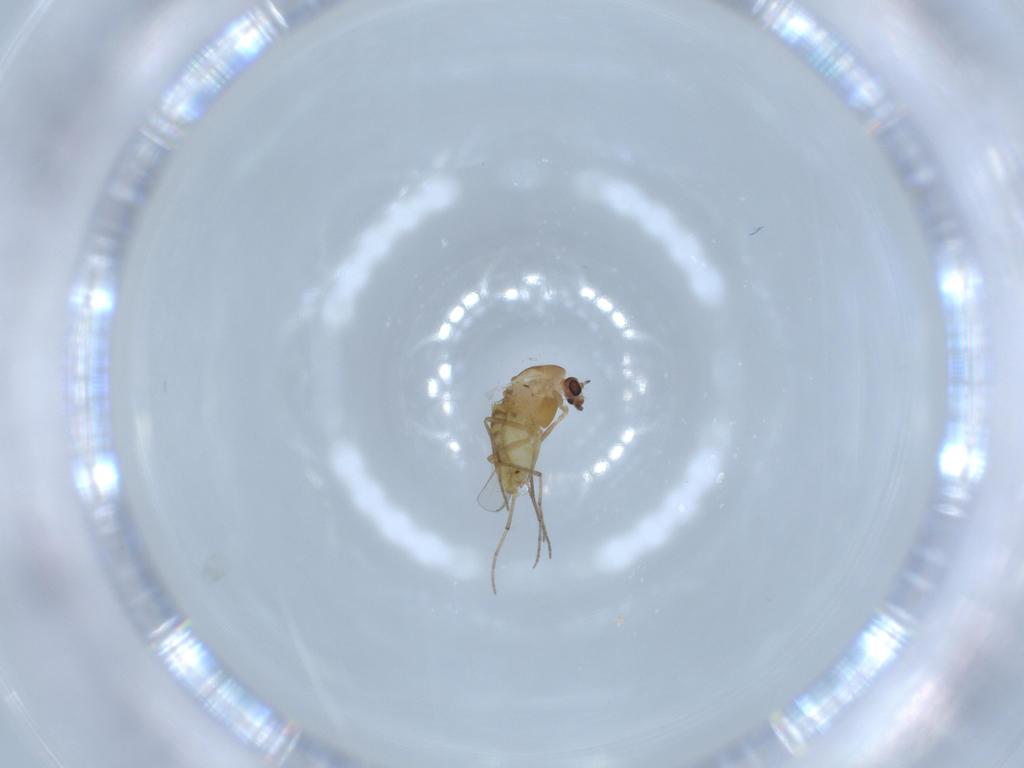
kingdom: Animalia
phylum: Arthropoda
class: Insecta
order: Diptera
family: Chironomidae
